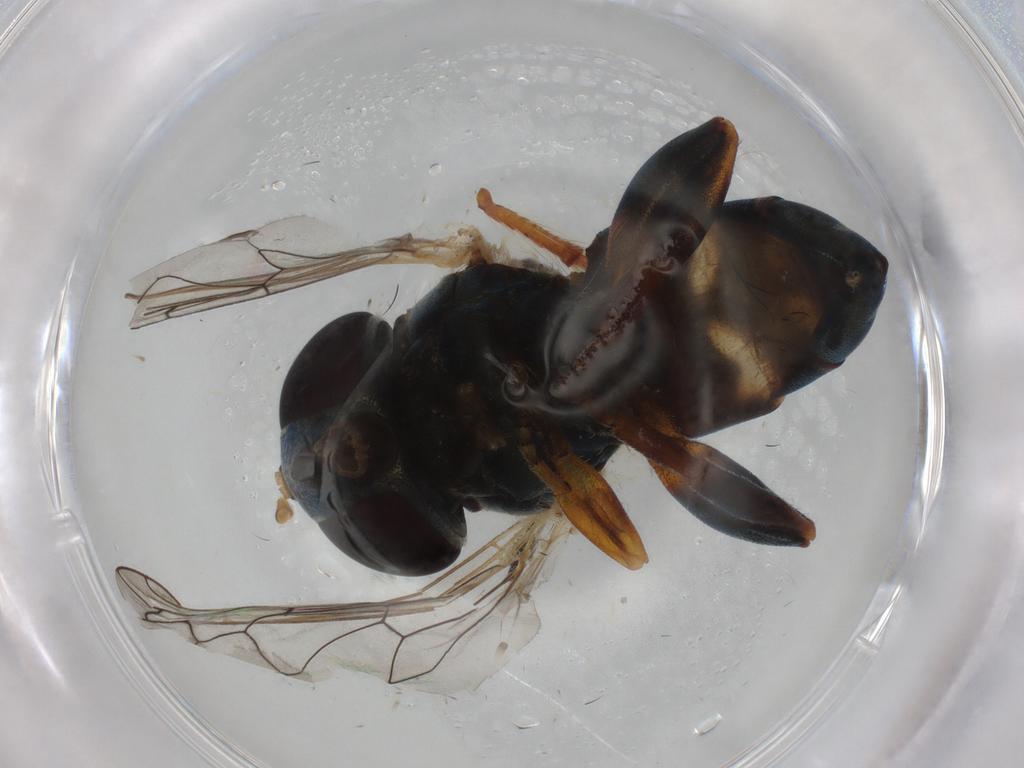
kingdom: Animalia
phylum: Arthropoda
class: Insecta
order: Diptera
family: Sciaridae
